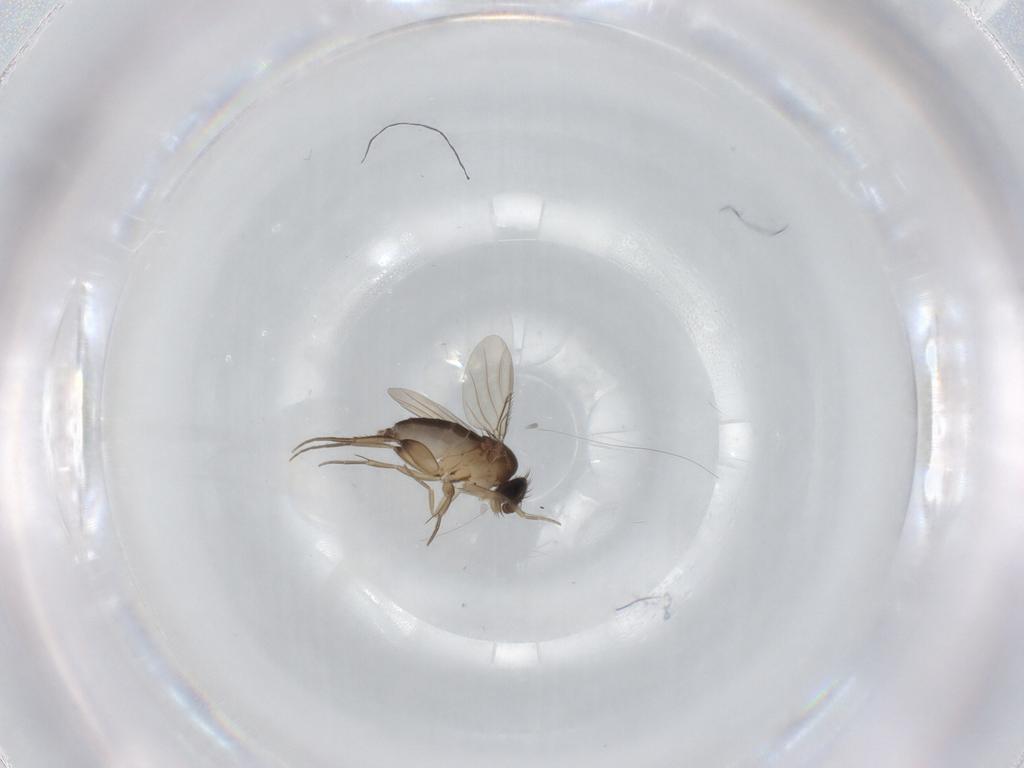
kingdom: Animalia
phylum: Arthropoda
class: Insecta
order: Diptera
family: Phoridae
